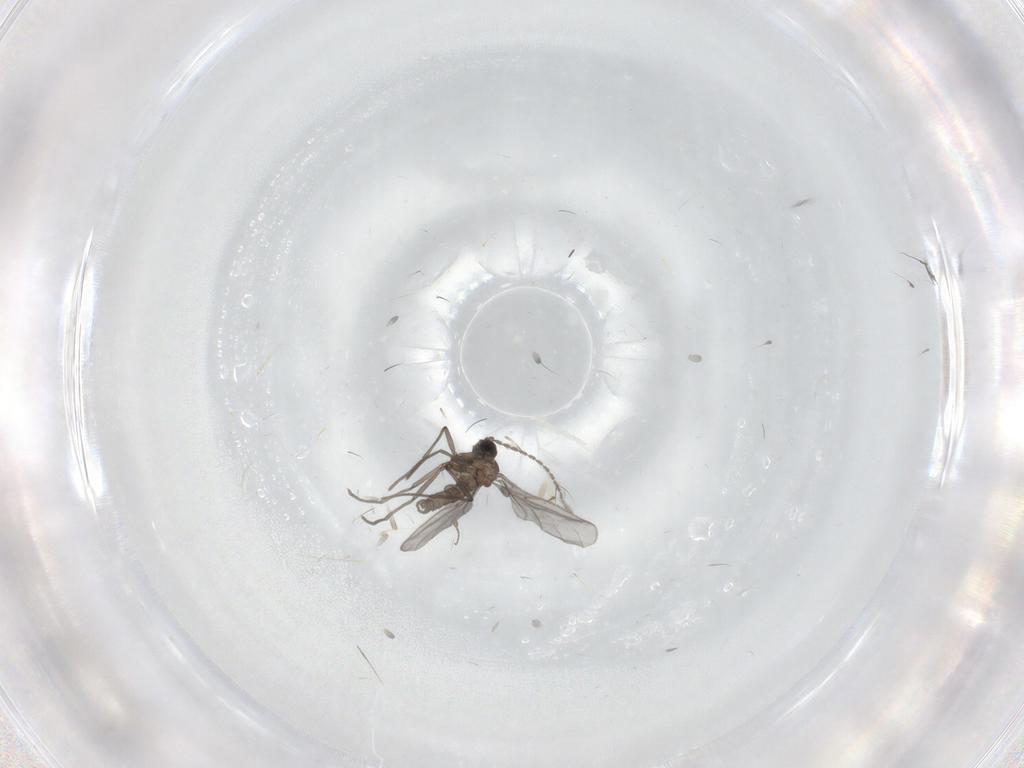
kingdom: Animalia
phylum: Arthropoda
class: Insecta
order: Diptera
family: Sciaridae
